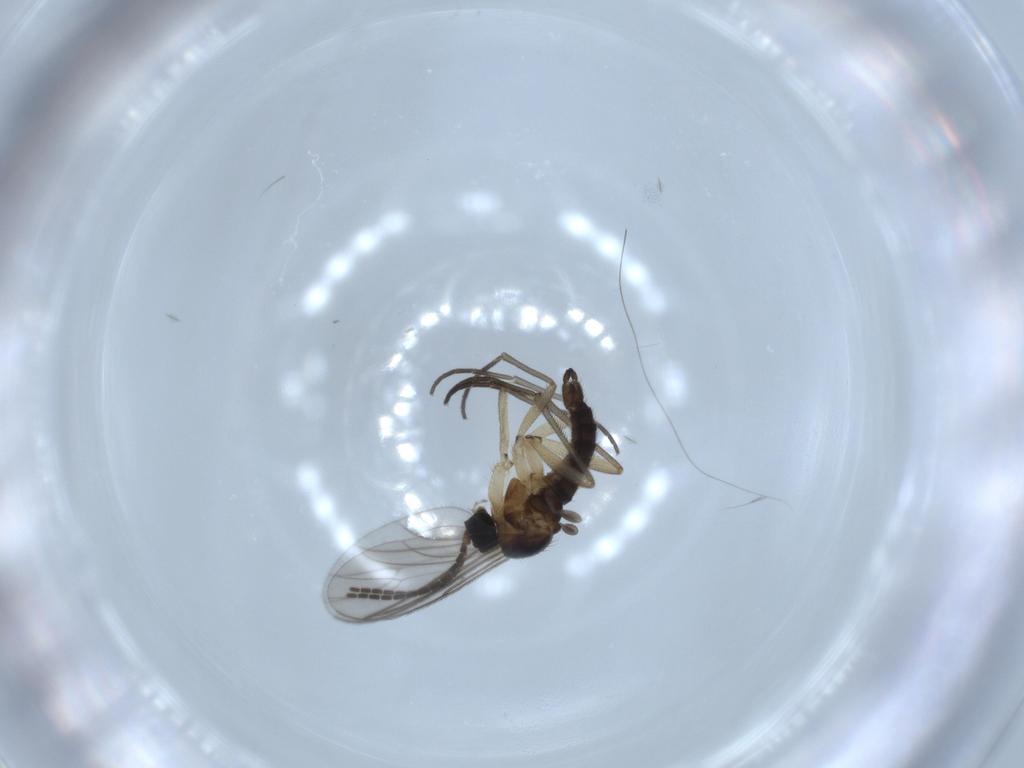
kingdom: Animalia
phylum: Arthropoda
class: Insecta
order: Diptera
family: Sciaridae
